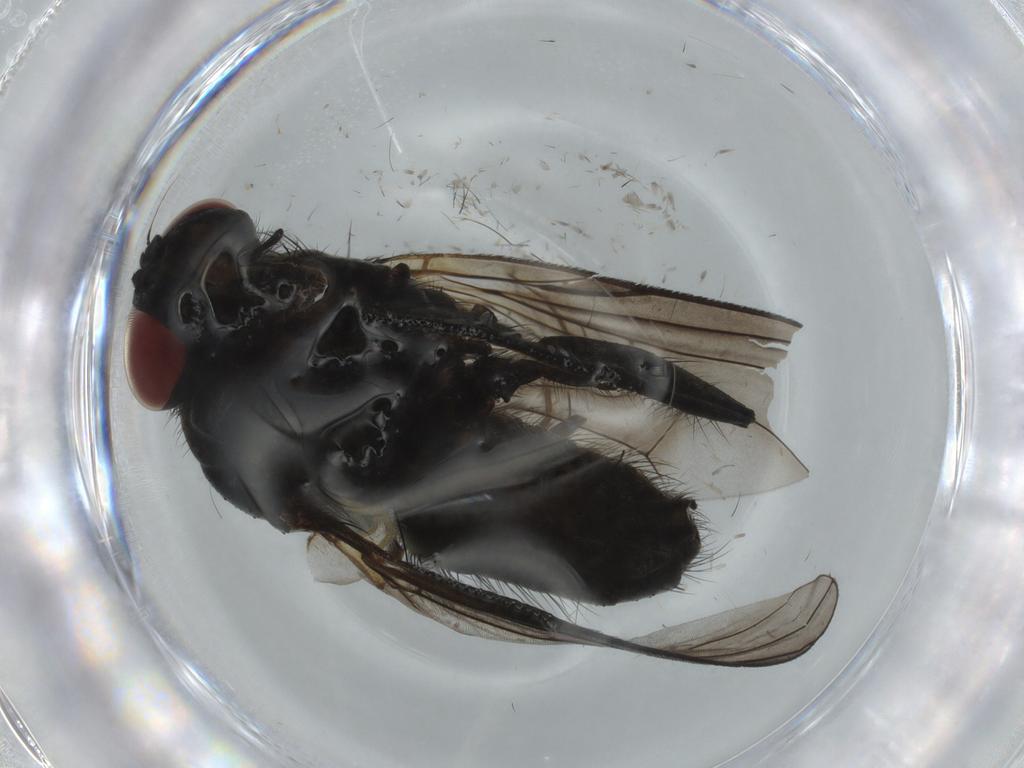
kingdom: Animalia
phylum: Arthropoda
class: Insecta
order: Diptera
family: Muscidae
